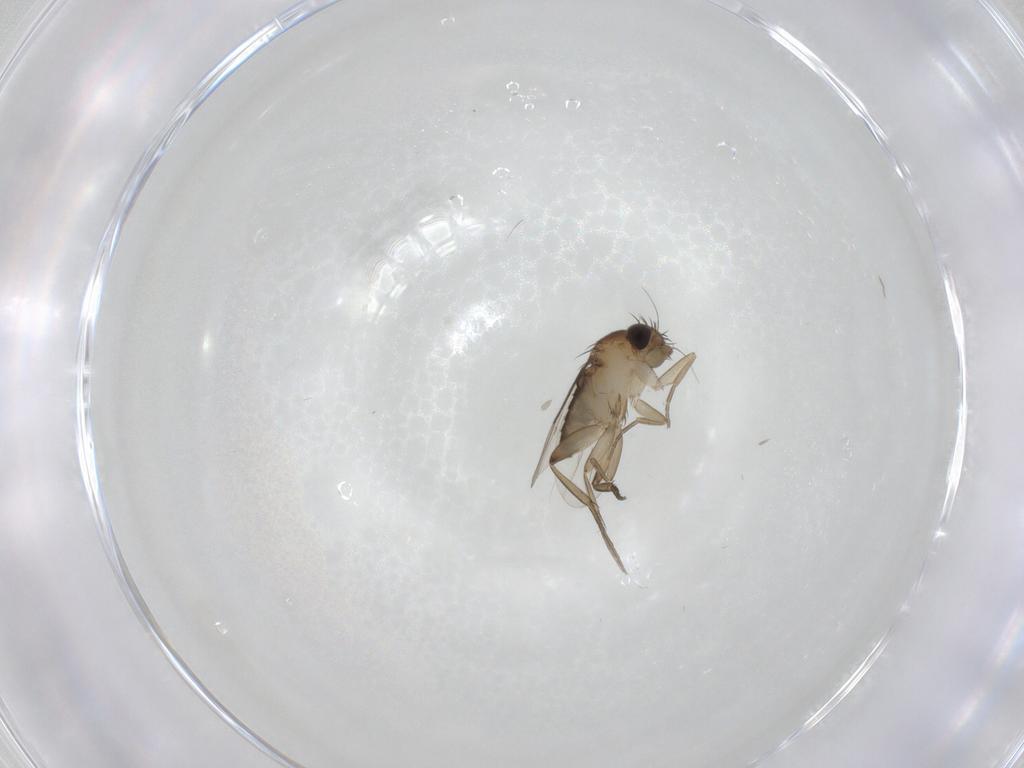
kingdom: Animalia
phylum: Arthropoda
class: Insecta
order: Diptera
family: Phoridae
